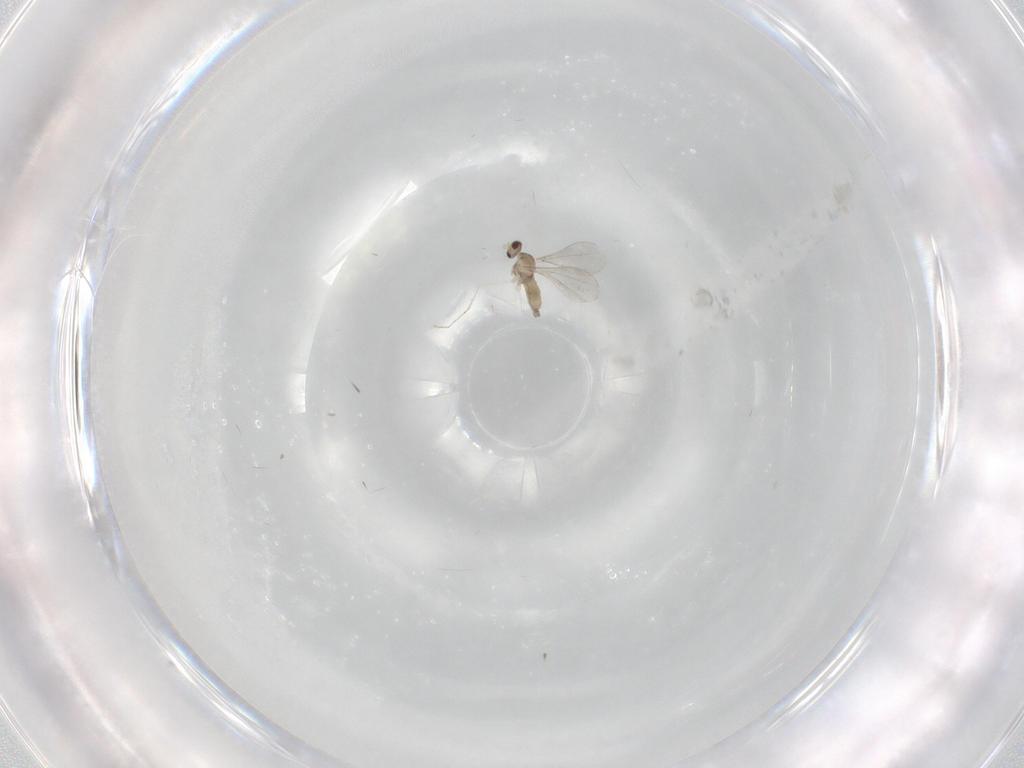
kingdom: Animalia
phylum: Arthropoda
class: Insecta
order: Diptera
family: Cecidomyiidae
